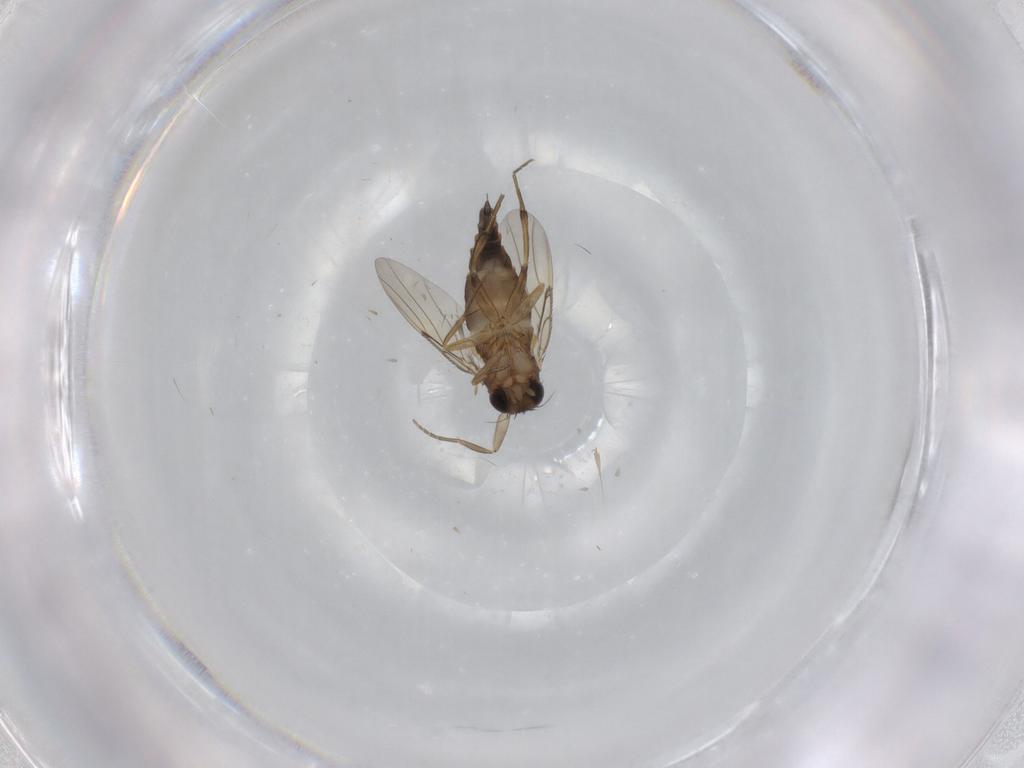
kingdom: Animalia
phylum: Arthropoda
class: Insecta
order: Diptera
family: Phoridae
